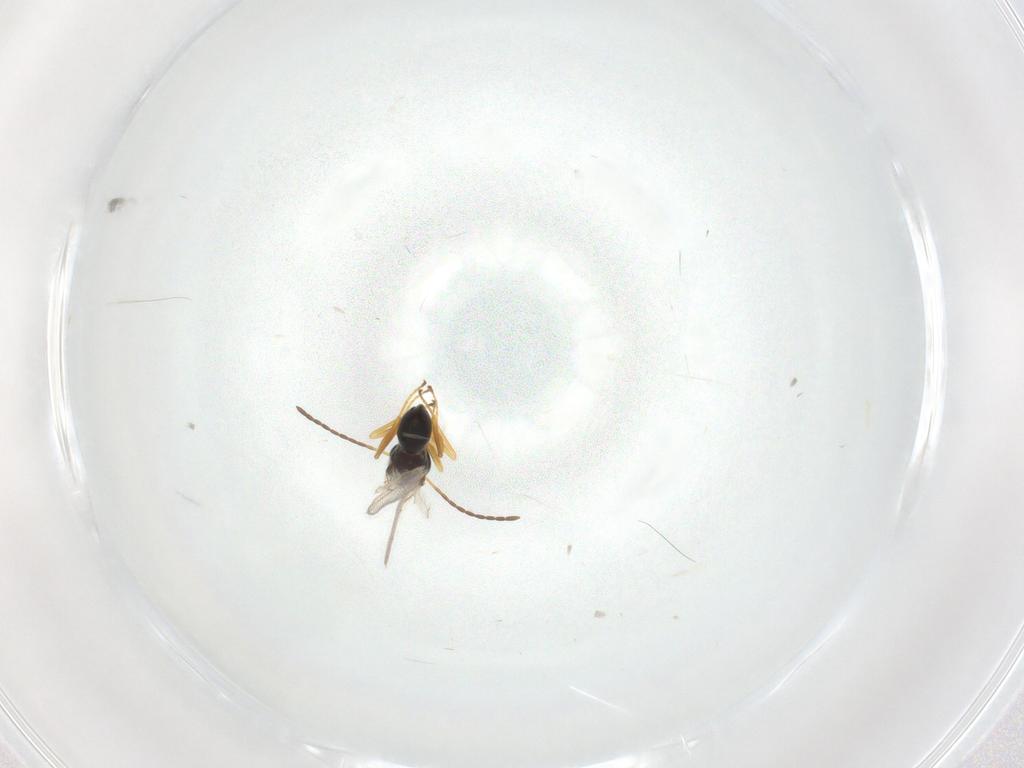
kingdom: Animalia
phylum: Arthropoda
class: Insecta
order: Hymenoptera
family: Figitidae
